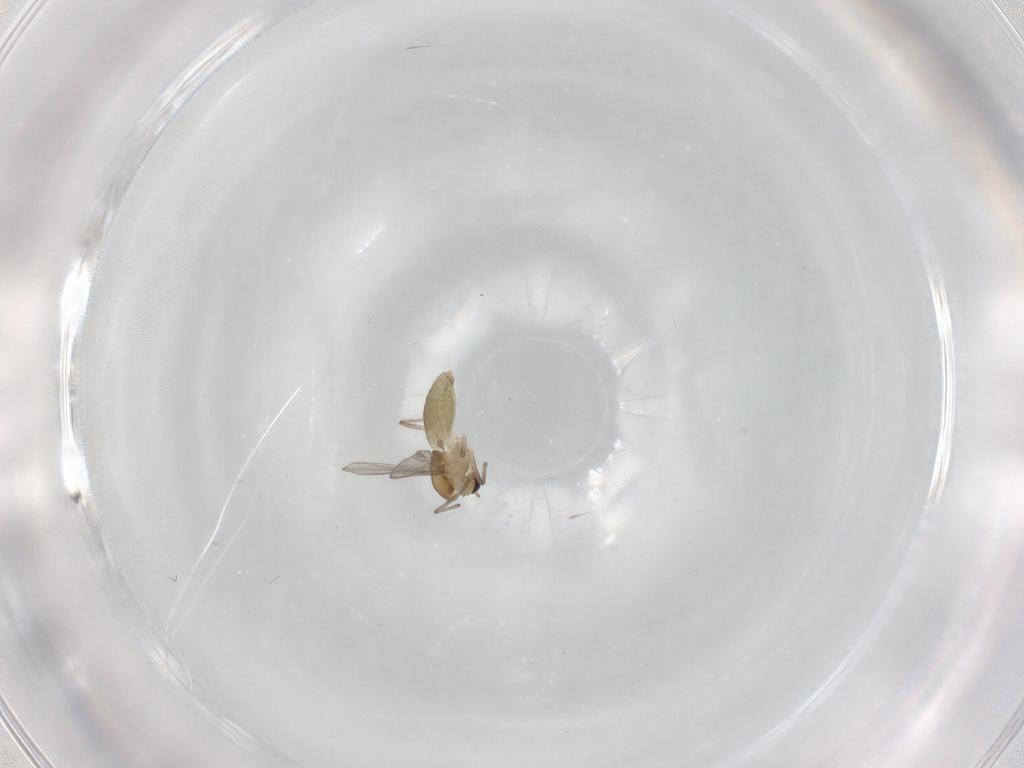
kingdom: Animalia
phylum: Arthropoda
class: Insecta
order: Diptera
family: Chironomidae
